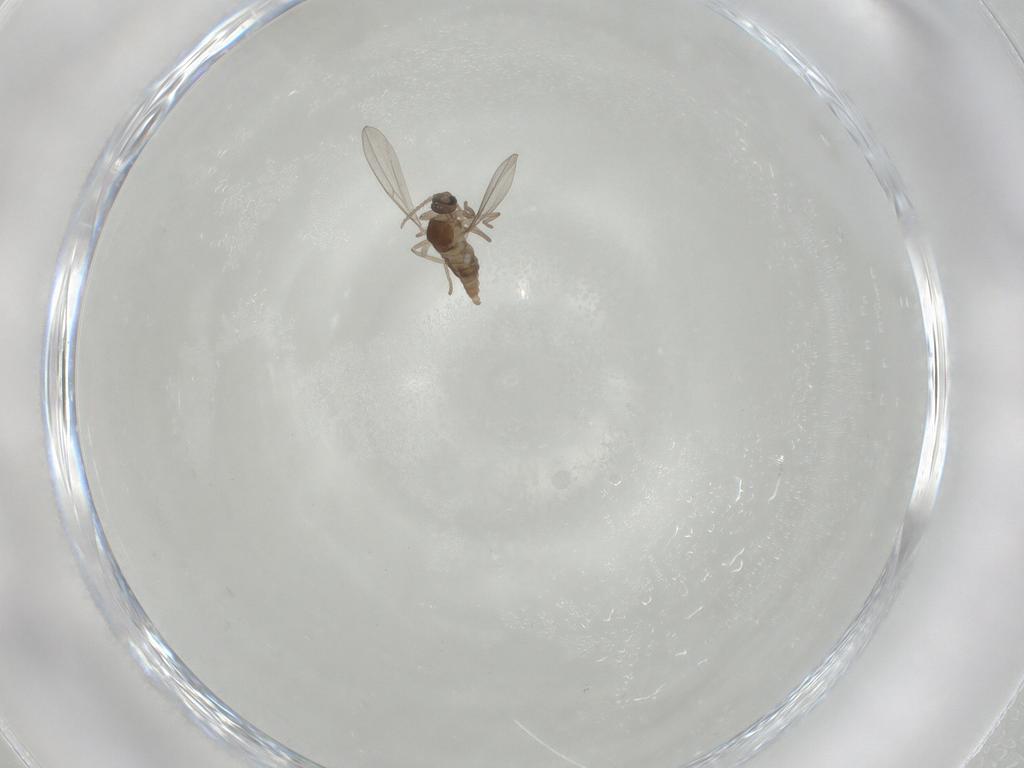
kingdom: Animalia
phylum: Arthropoda
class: Insecta
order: Diptera
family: Cecidomyiidae
